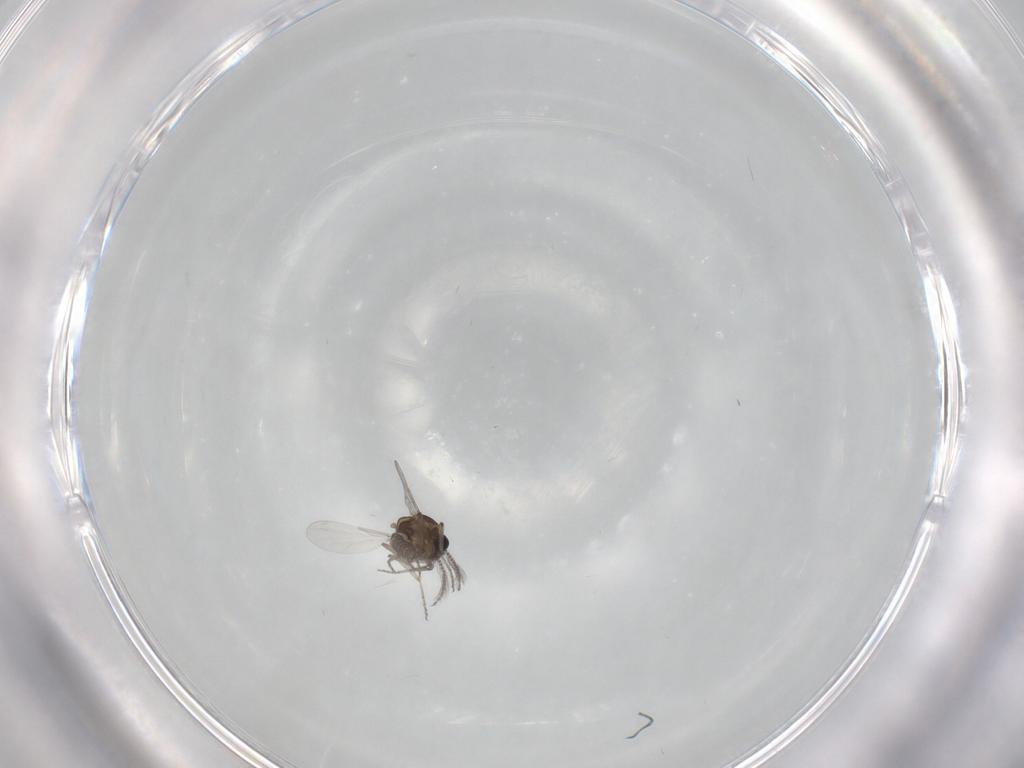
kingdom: Animalia
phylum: Arthropoda
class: Insecta
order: Diptera
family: Ceratopogonidae
